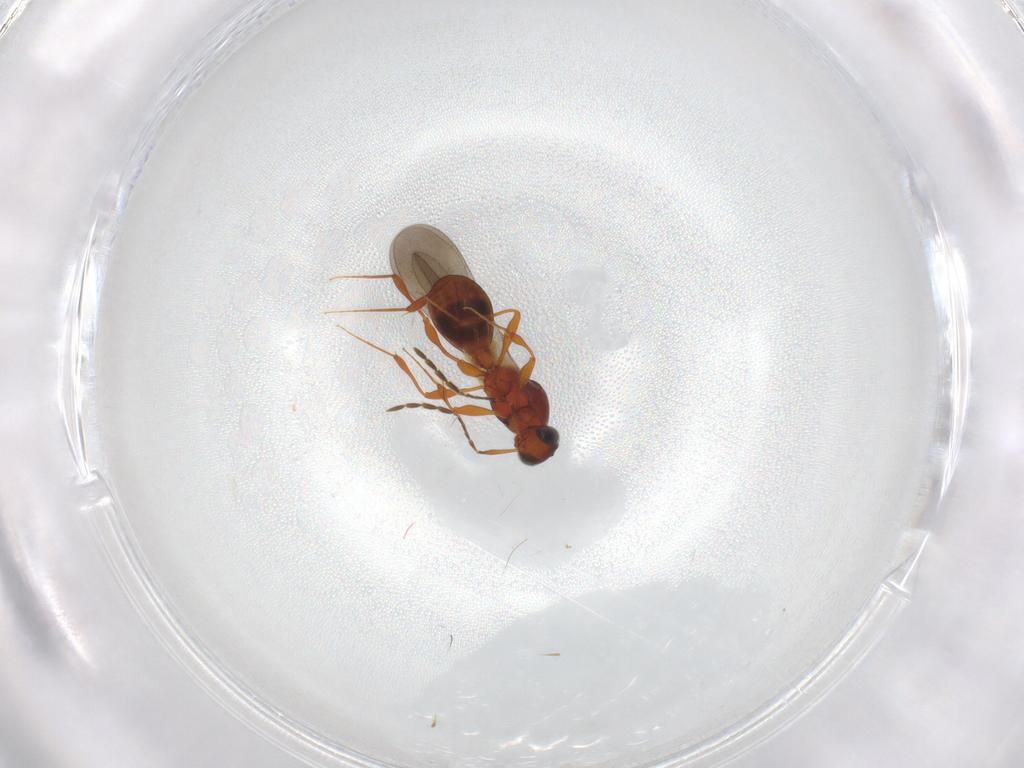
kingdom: Animalia
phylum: Arthropoda
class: Insecta
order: Hymenoptera
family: Platygastridae
